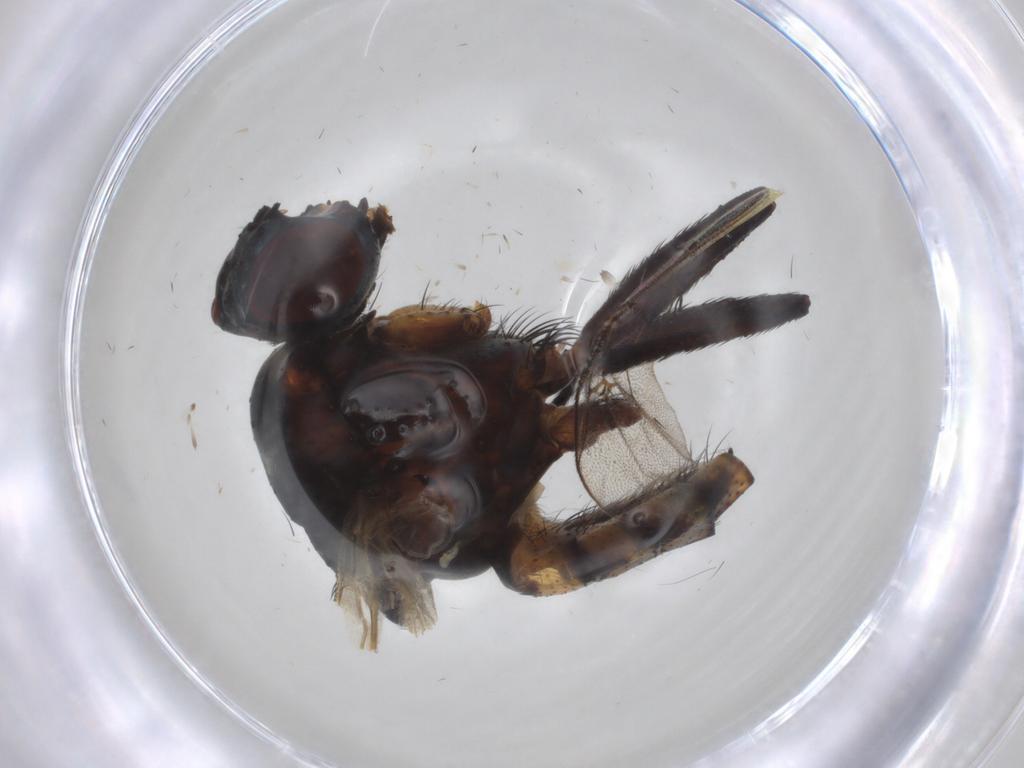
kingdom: Animalia
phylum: Arthropoda
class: Insecta
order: Diptera
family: Anthomyiidae
